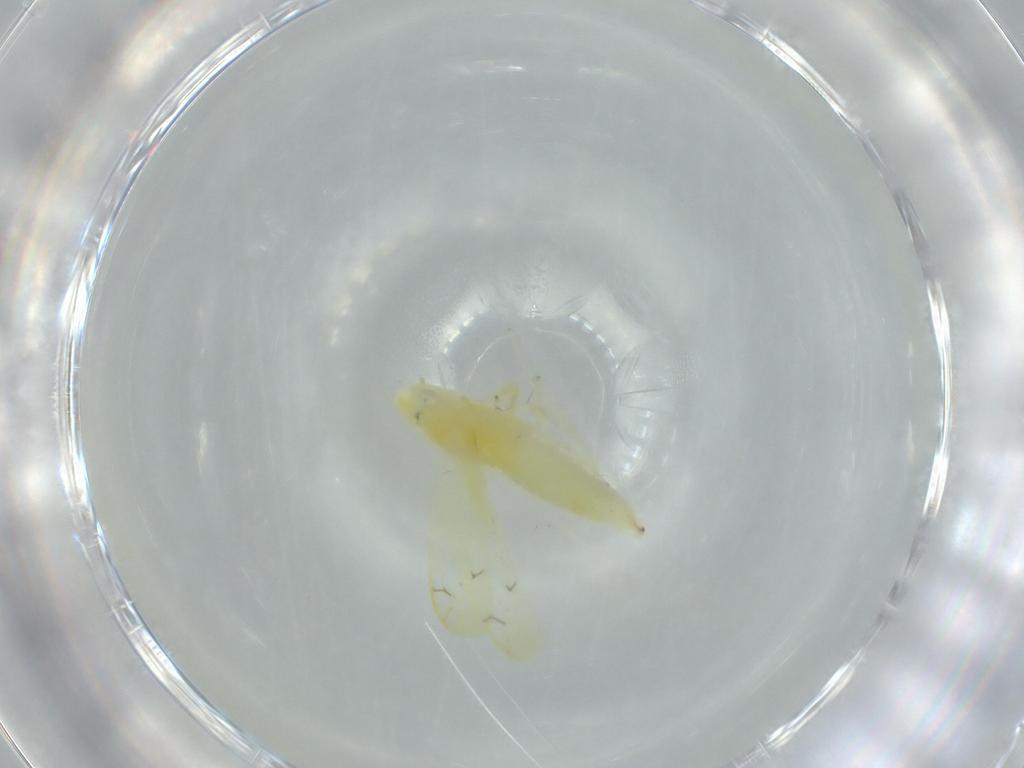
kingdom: Animalia
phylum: Arthropoda
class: Insecta
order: Hemiptera
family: Cicadellidae
